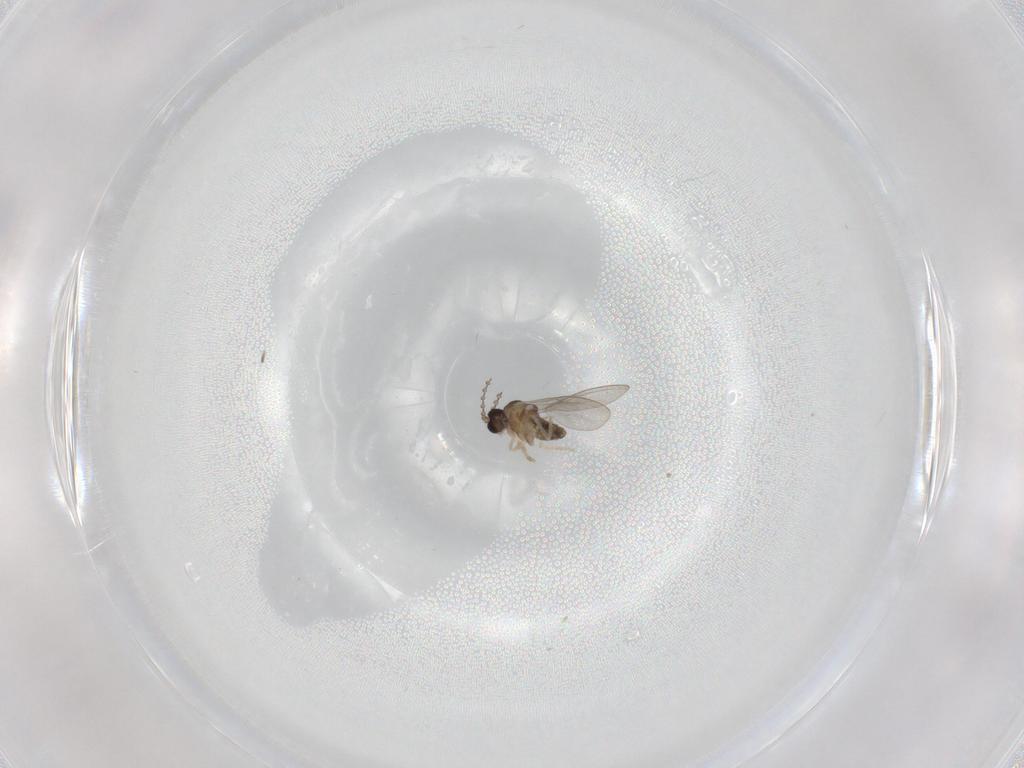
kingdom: Animalia
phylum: Arthropoda
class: Insecta
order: Diptera
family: Cecidomyiidae
